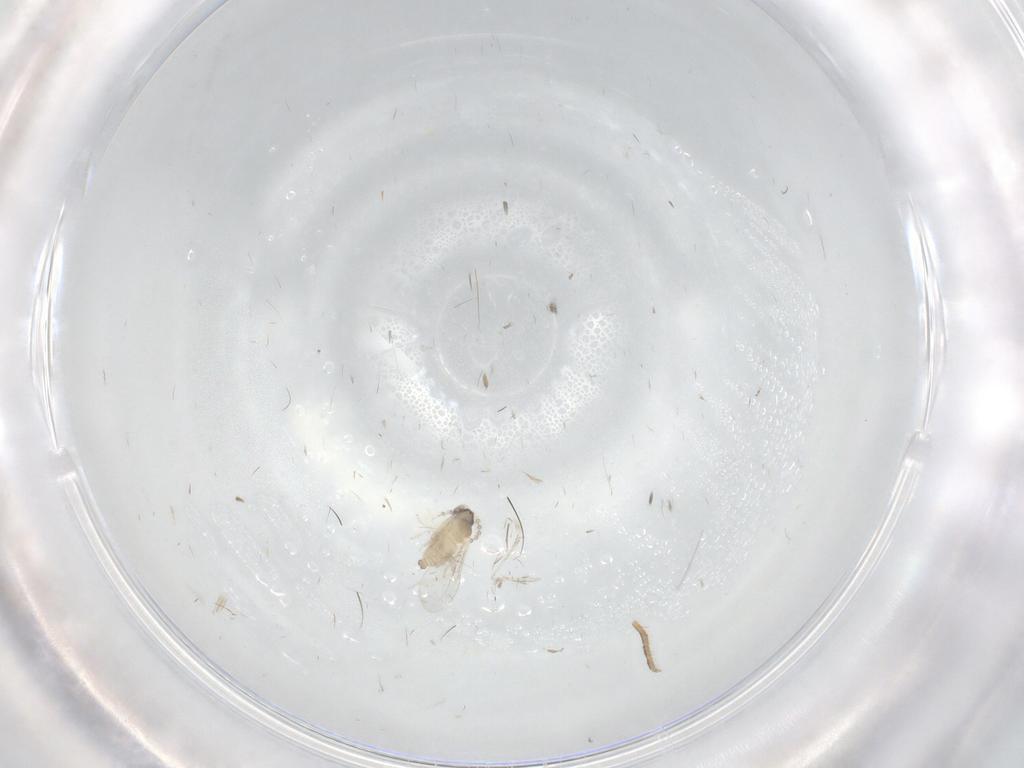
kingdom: Animalia
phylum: Arthropoda
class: Insecta
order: Diptera
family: Cecidomyiidae
